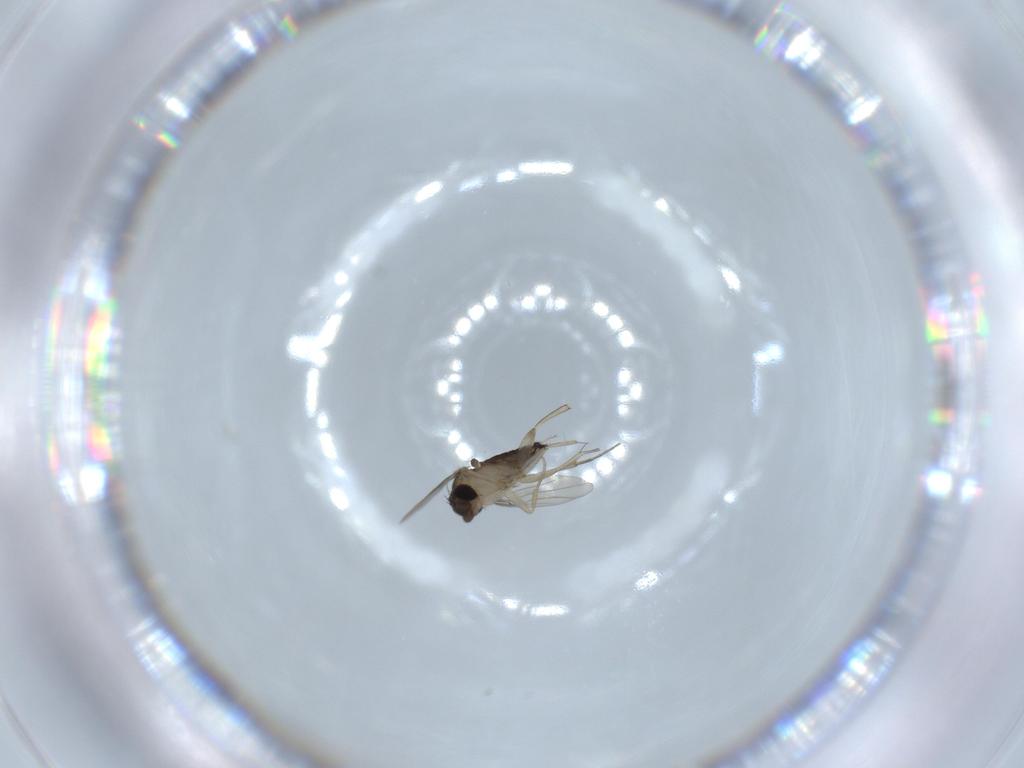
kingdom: Animalia
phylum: Arthropoda
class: Insecta
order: Diptera
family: Phoridae
